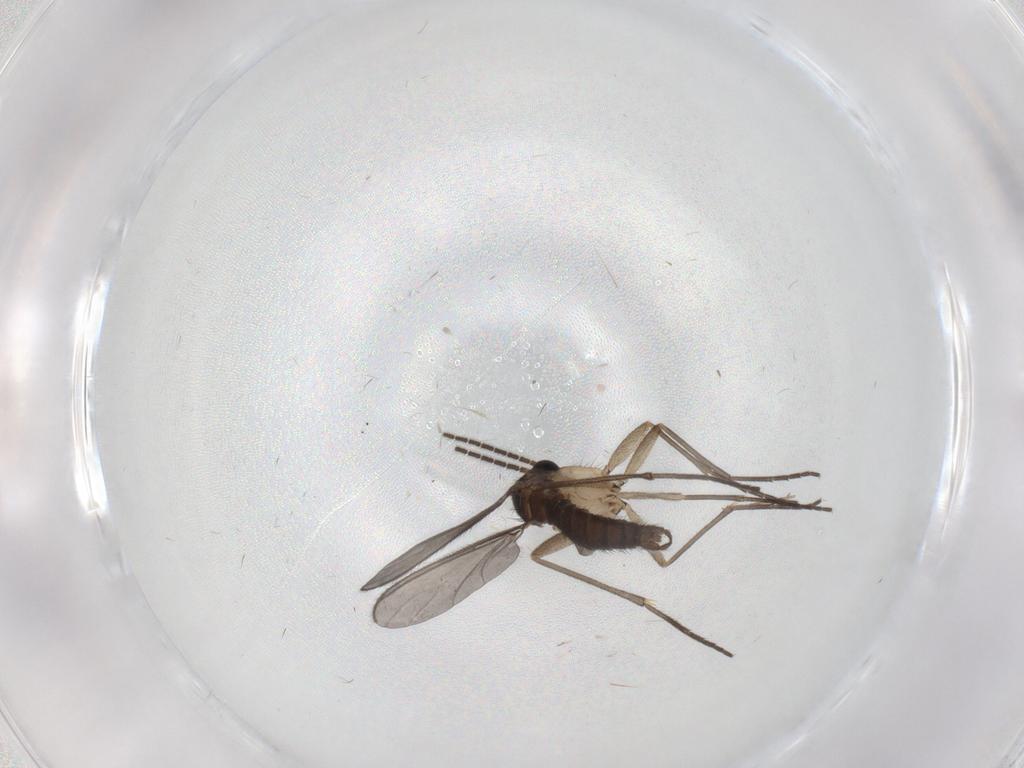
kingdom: Animalia
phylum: Arthropoda
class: Insecta
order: Diptera
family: Sciaridae
